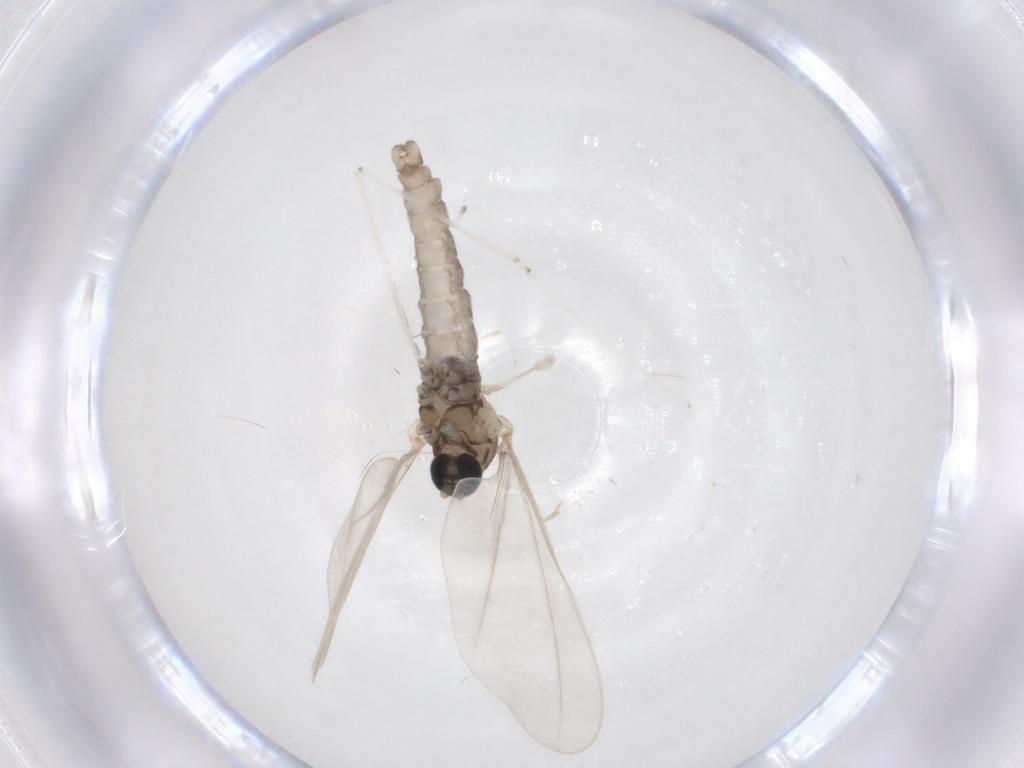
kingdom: Animalia
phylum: Arthropoda
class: Insecta
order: Diptera
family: Cecidomyiidae
